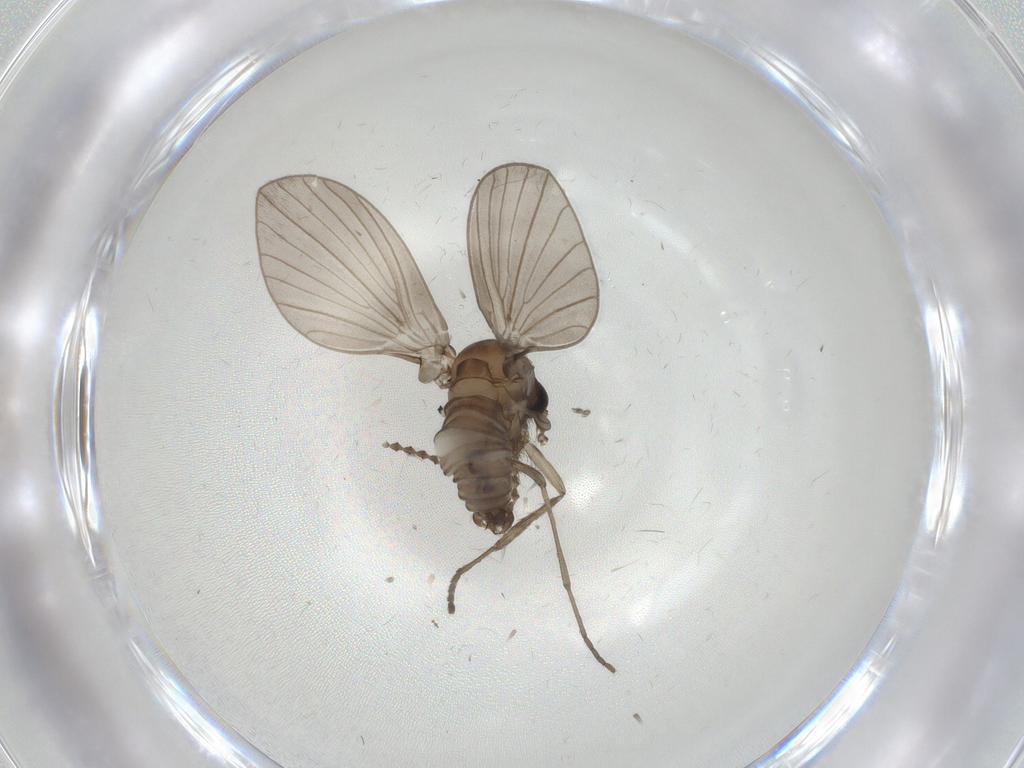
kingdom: Animalia
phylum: Arthropoda
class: Insecta
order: Diptera
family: Psychodidae
